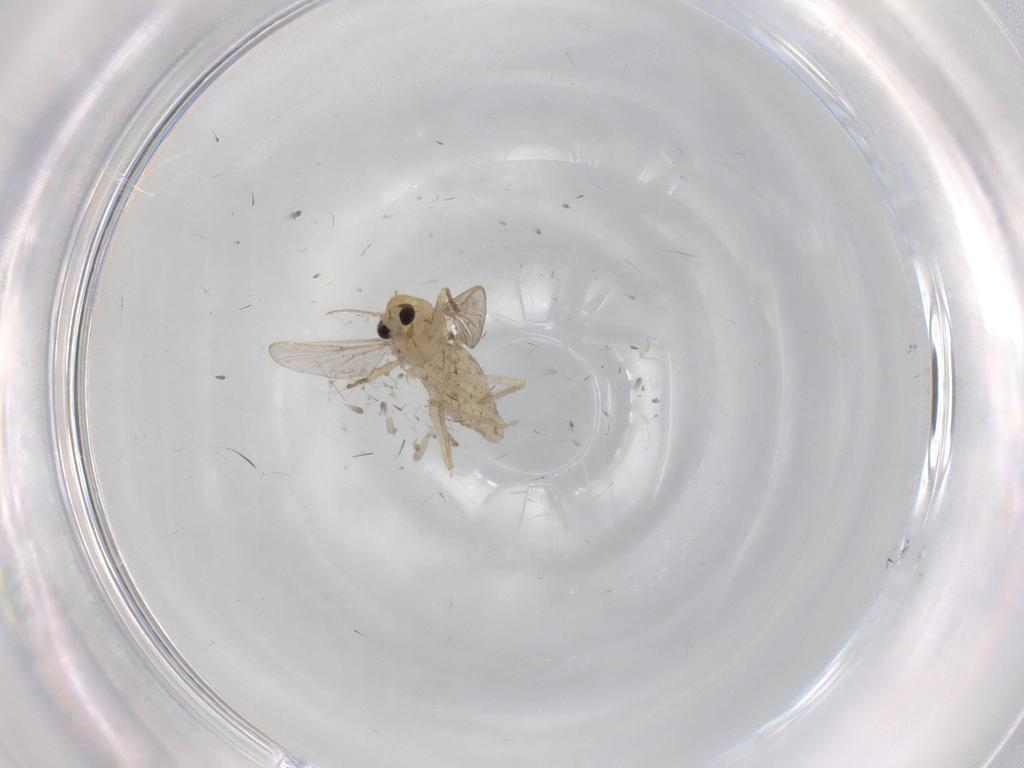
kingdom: Animalia
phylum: Arthropoda
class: Insecta
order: Diptera
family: Chironomidae
